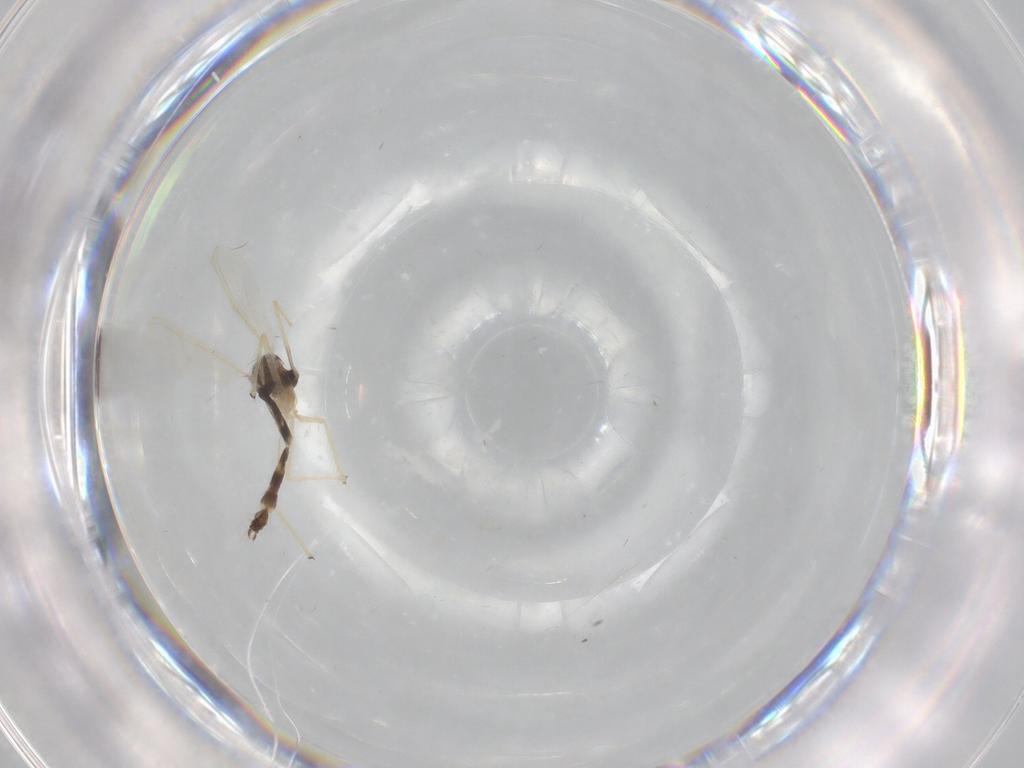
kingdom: Animalia
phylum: Arthropoda
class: Insecta
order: Diptera
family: Chironomidae
